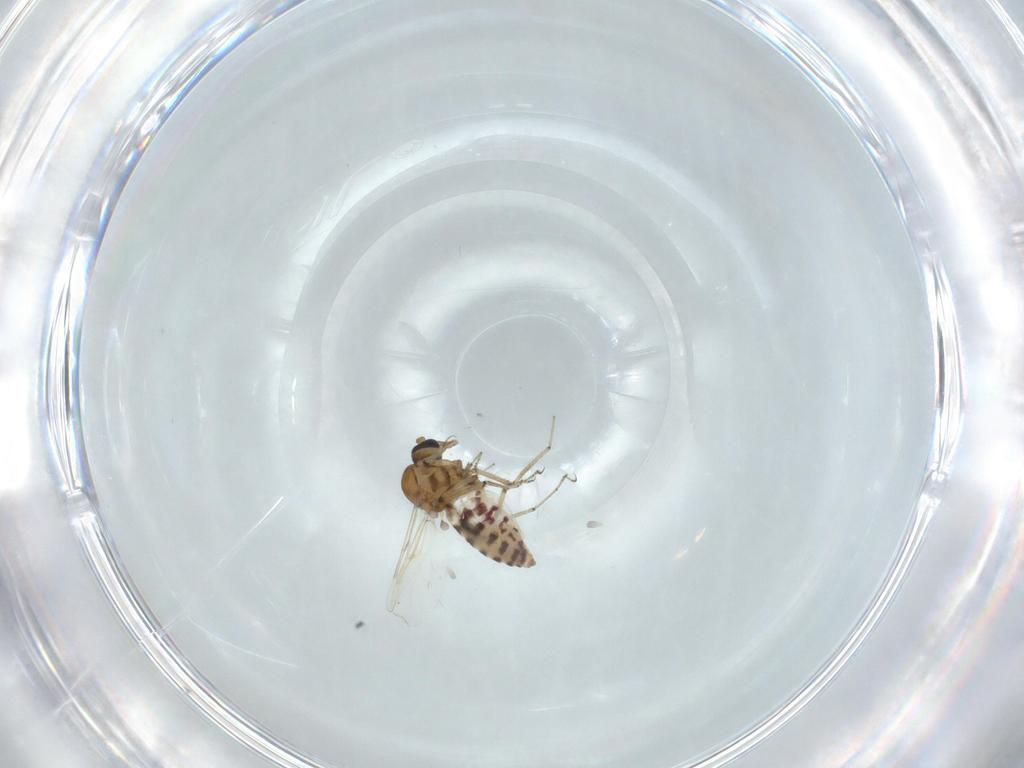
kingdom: Animalia
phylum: Arthropoda
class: Insecta
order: Diptera
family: Ceratopogonidae
